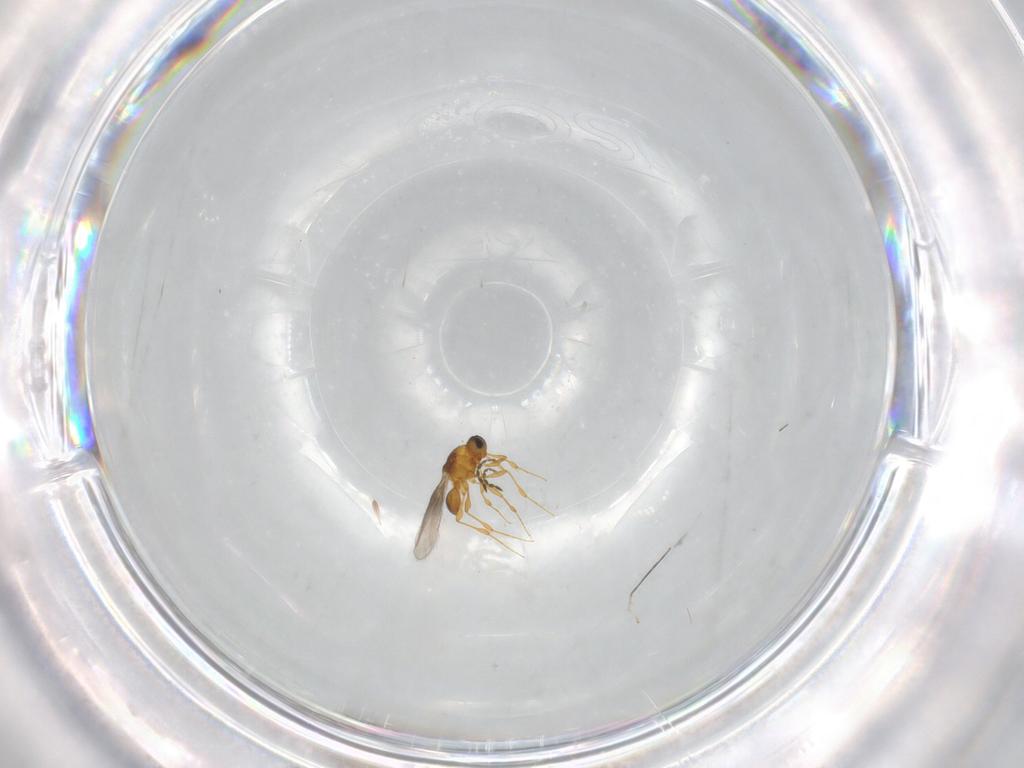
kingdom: Animalia
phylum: Arthropoda
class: Insecta
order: Hymenoptera
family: Platygastridae
